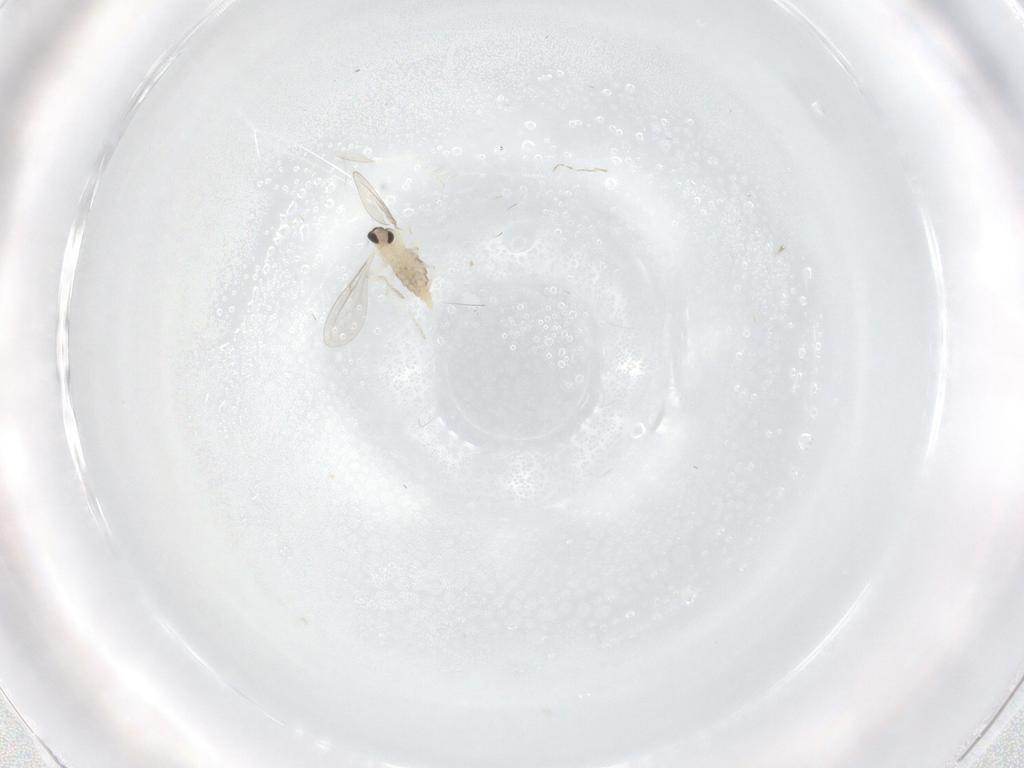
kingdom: Animalia
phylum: Arthropoda
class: Insecta
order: Diptera
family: Cecidomyiidae
